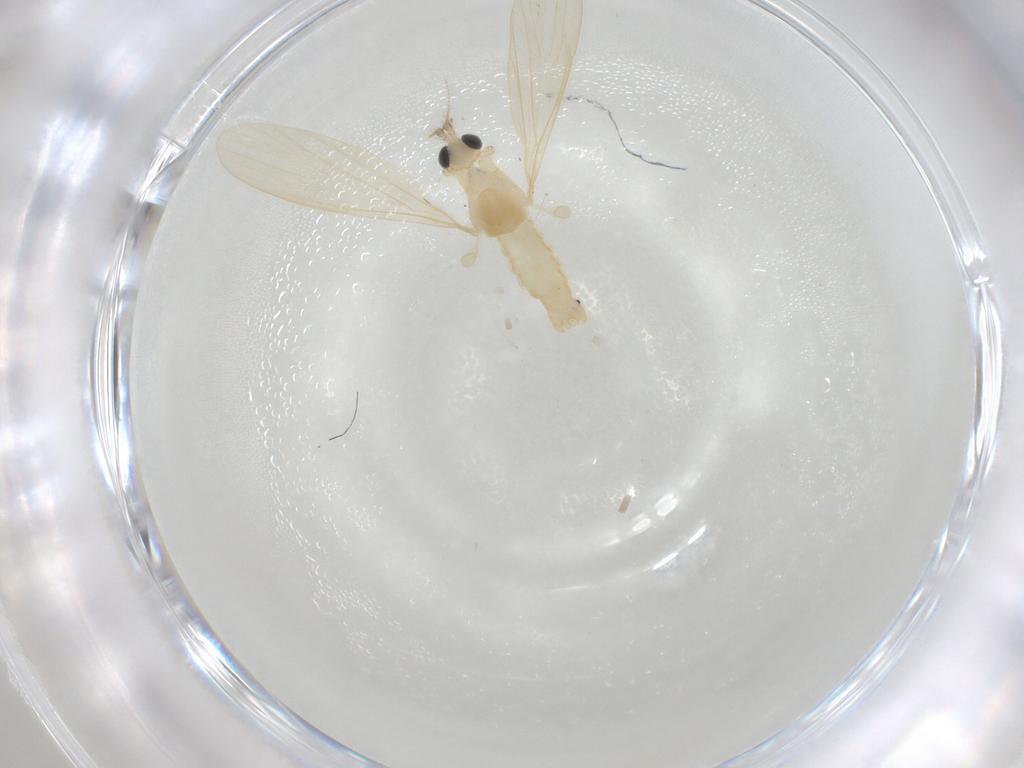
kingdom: Animalia
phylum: Arthropoda
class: Insecta
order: Diptera
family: Limoniidae
